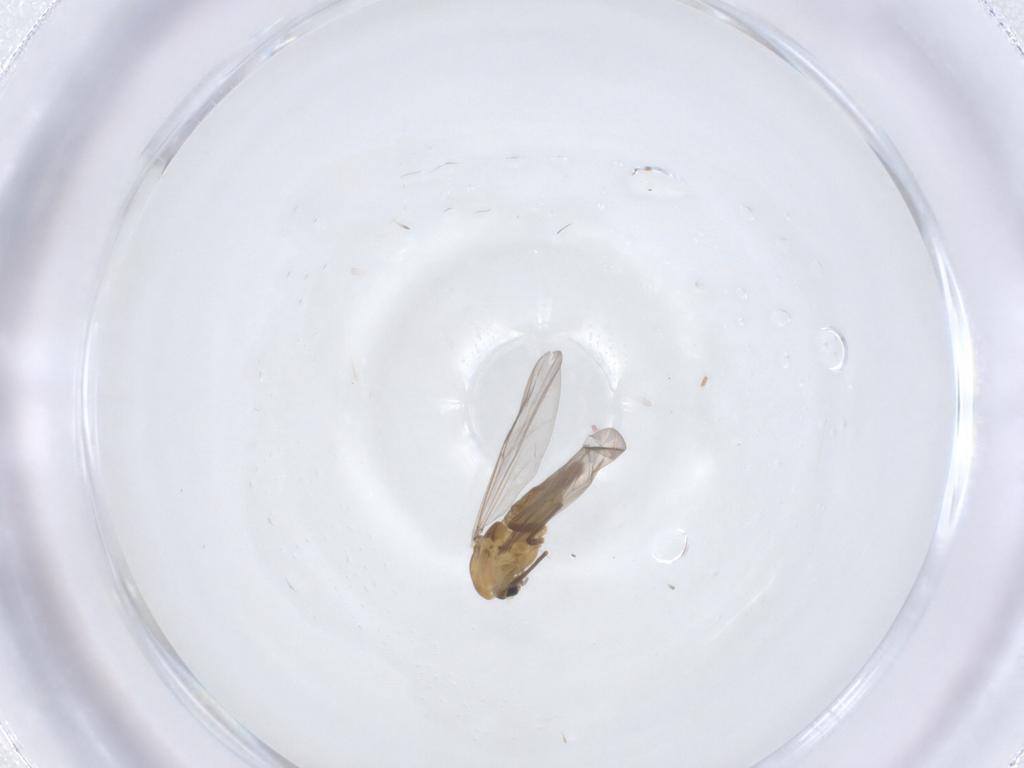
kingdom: Animalia
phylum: Arthropoda
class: Insecta
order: Diptera
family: Chironomidae
